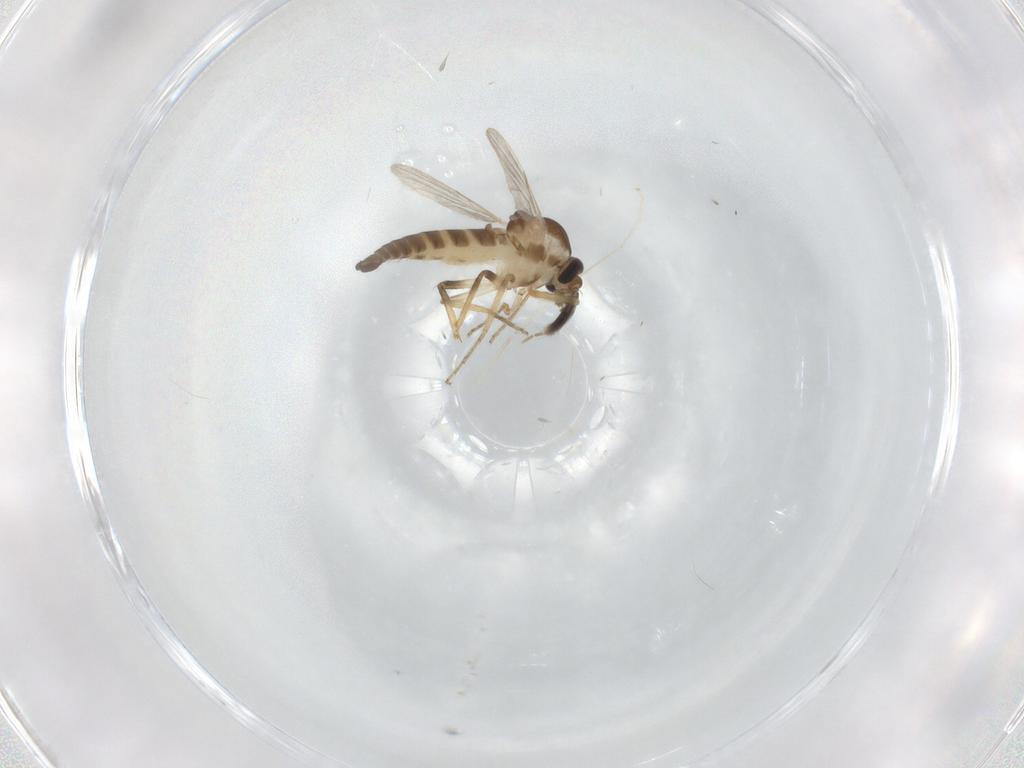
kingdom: Animalia
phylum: Arthropoda
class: Insecta
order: Diptera
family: Ceratopogonidae
